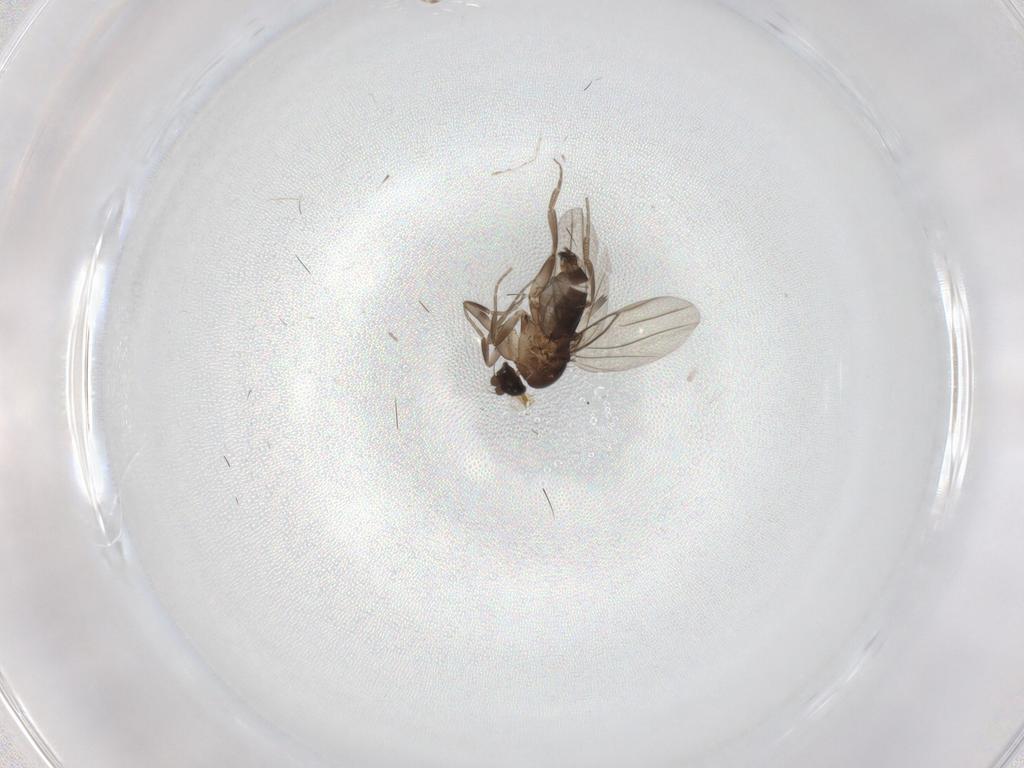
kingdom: Animalia
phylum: Arthropoda
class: Insecta
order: Diptera
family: Phoridae
